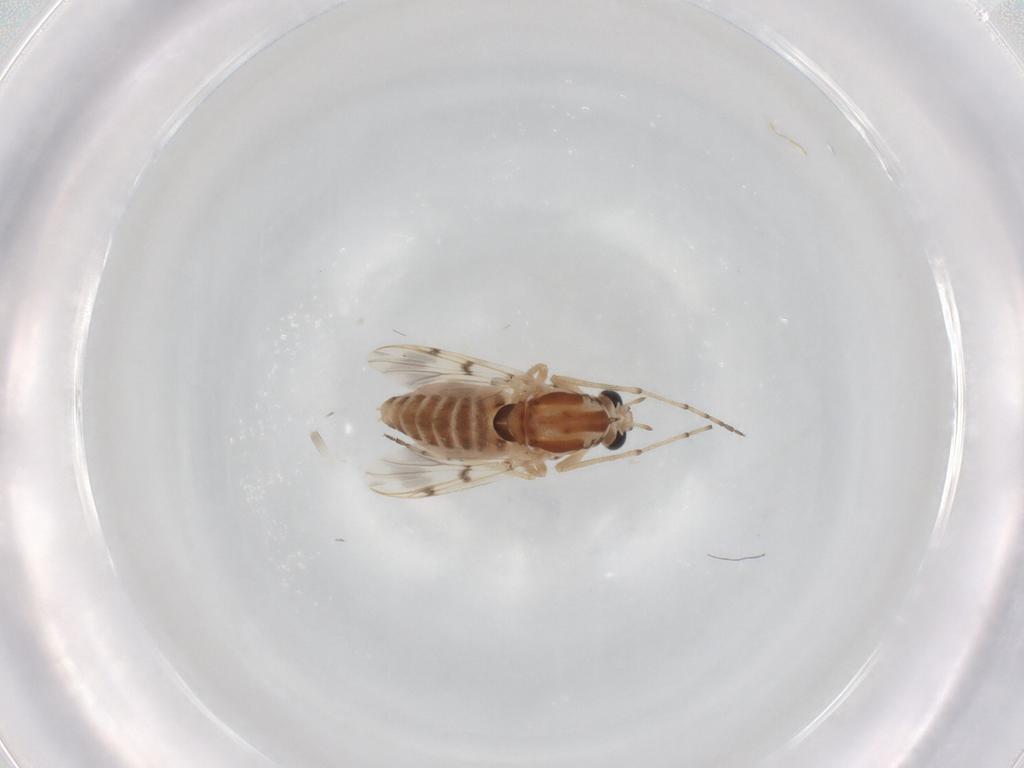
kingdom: Animalia
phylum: Arthropoda
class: Insecta
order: Diptera
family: Chironomidae
